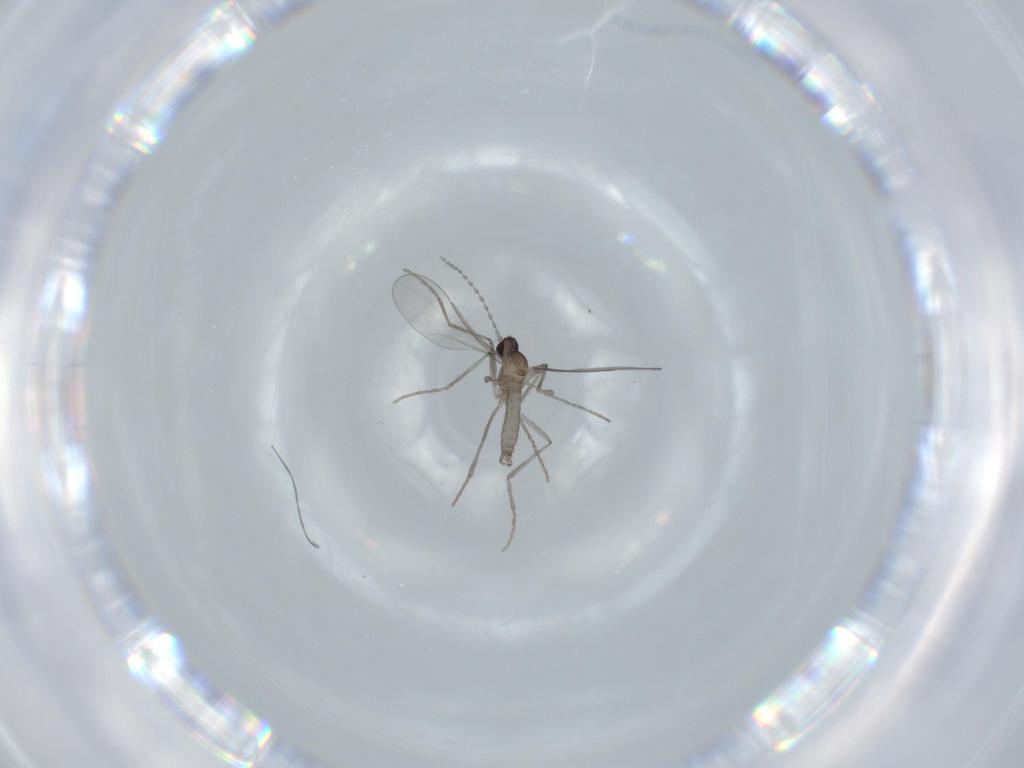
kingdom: Animalia
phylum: Arthropoda
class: Insecta
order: Diptera
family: Cecidomyiidae
